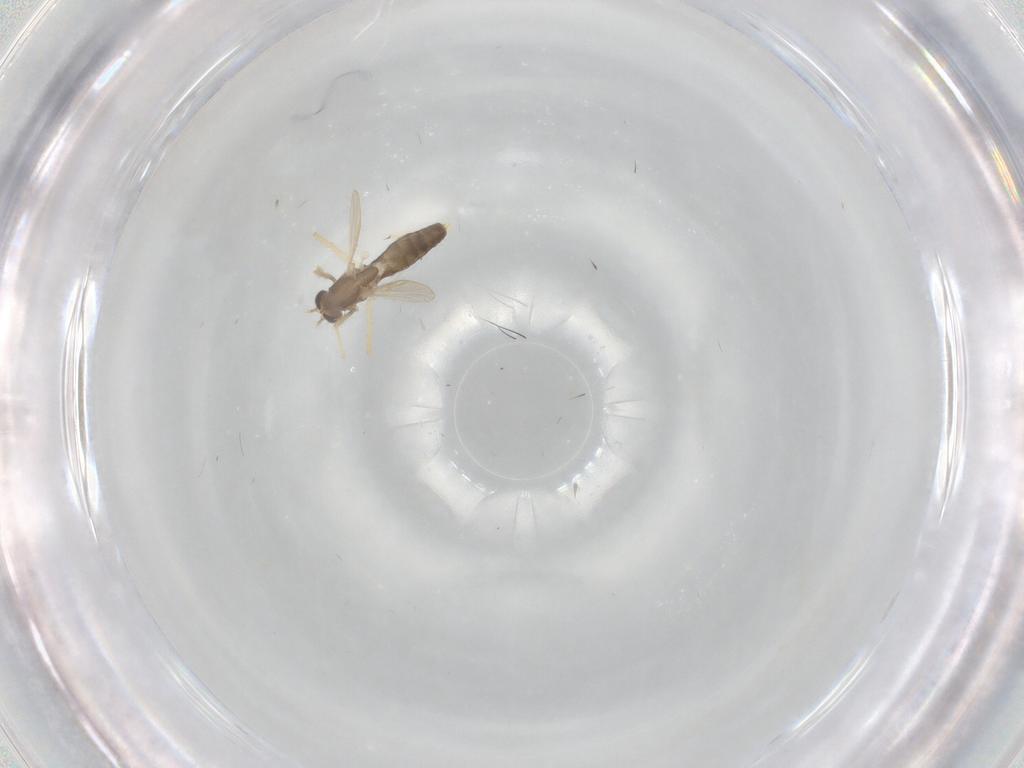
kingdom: Animalia
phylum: Arthropoda
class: Insecta
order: Diptera
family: Chironomidae
